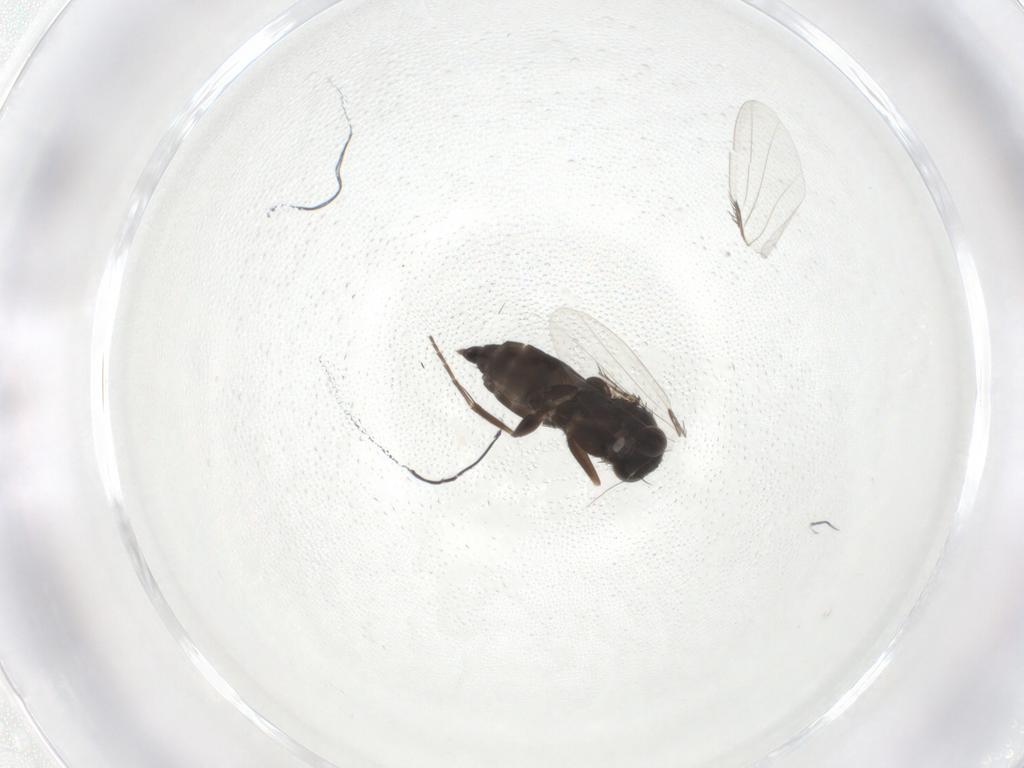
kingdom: Animalia
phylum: Arthropoda
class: Insecta
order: Diptera
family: Phoridae
